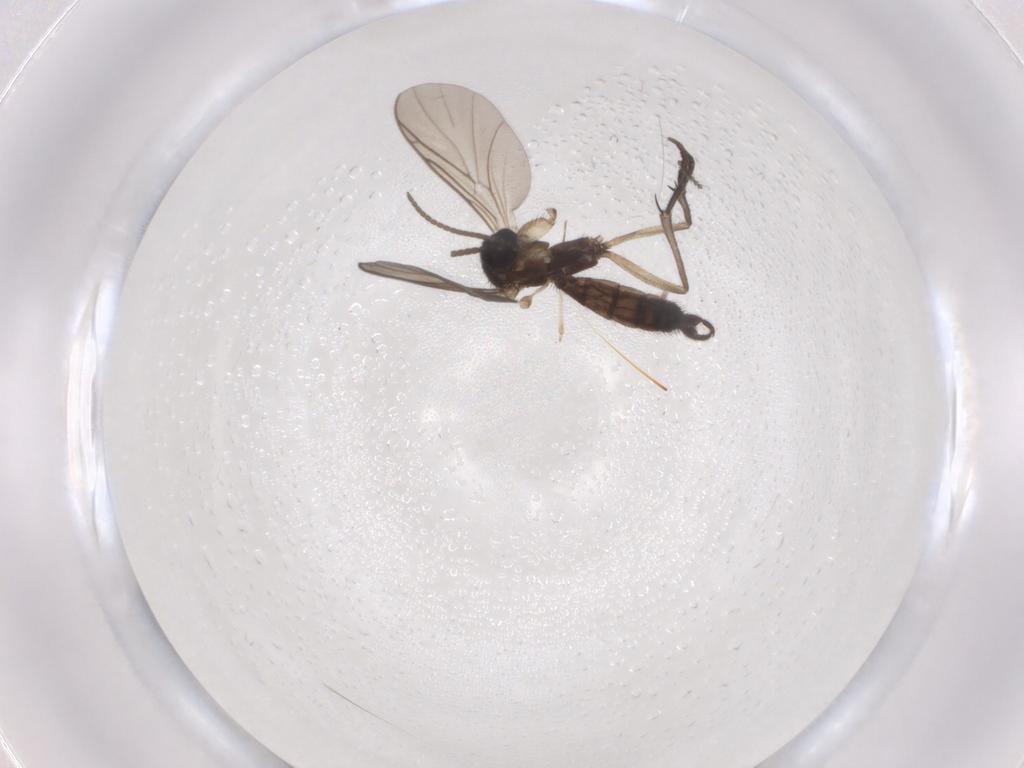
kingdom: Animalia
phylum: Arthropoda
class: Insecta
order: Diptera
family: Keroplatidae
